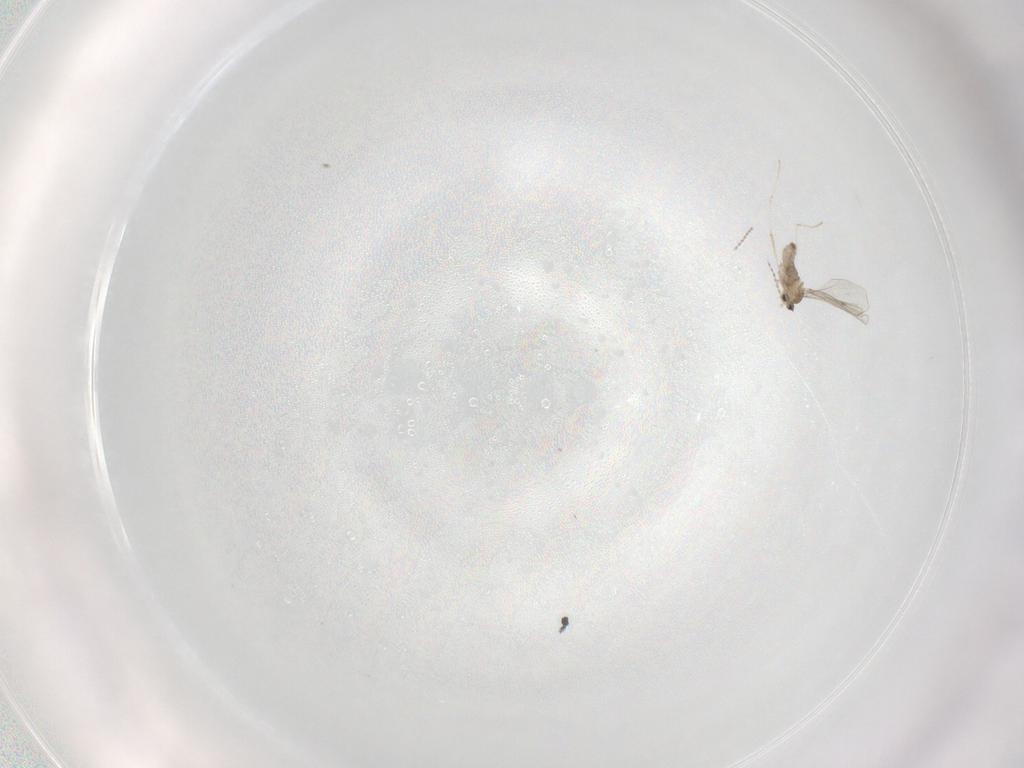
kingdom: Animalia
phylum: Arthropoda
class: Insecta
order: Diptera
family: Cecidomyiidae
